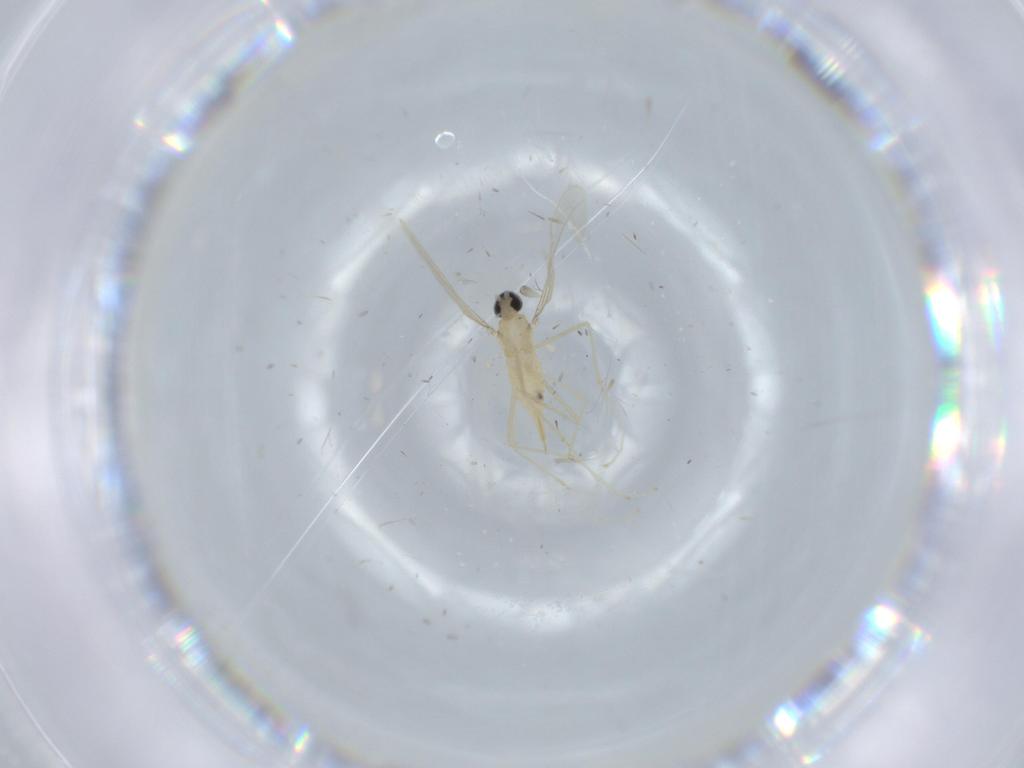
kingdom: Animalia
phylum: Arthropoda
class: Insecta
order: Diptera
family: Cecidomyiidae
